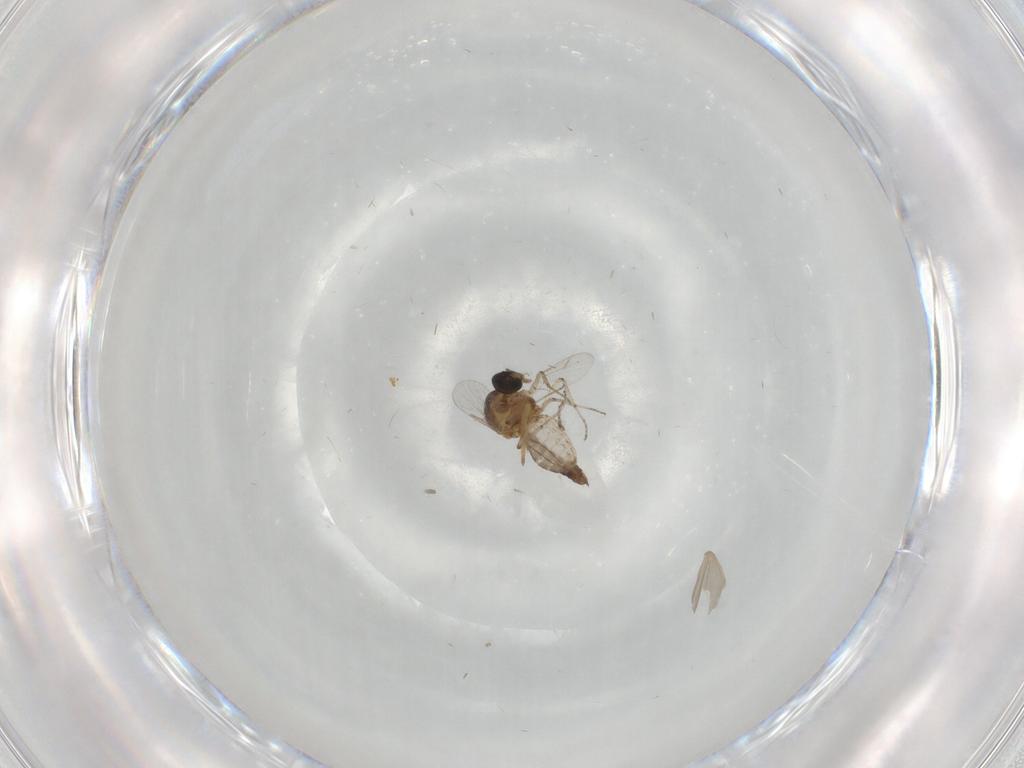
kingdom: Animalia
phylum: Arthropoda
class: Insecta
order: Diptera
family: Ceratopogonidae
